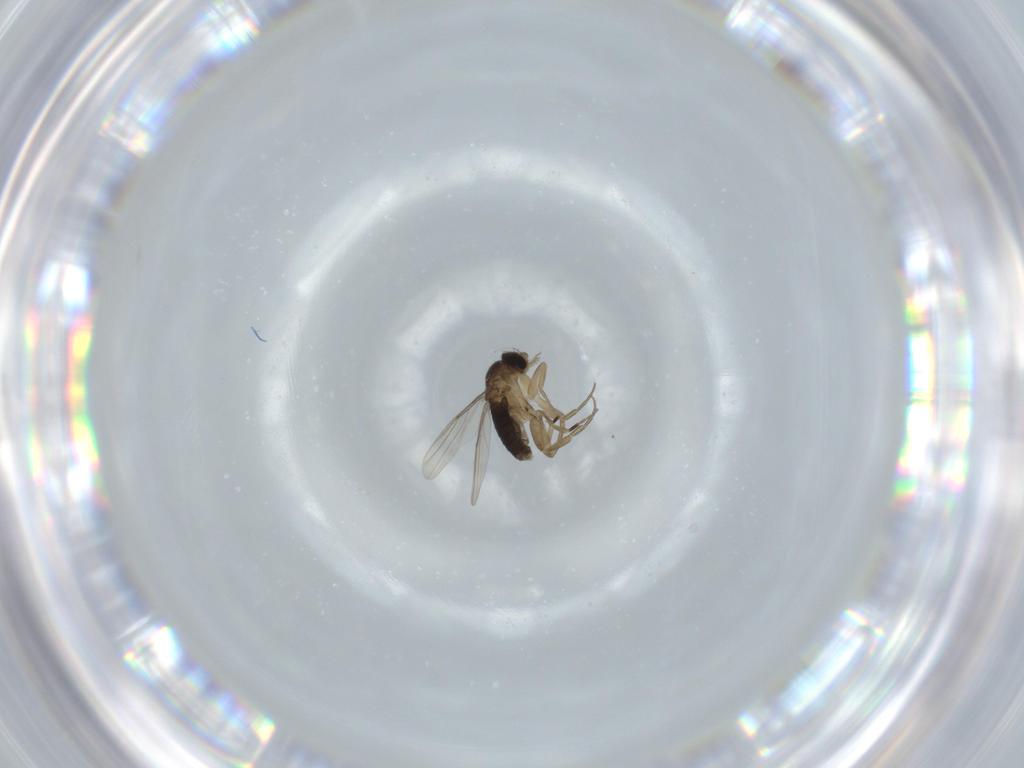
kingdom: Animalia
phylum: Arthropoda
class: Insecta
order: Diptera
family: Phoridae
